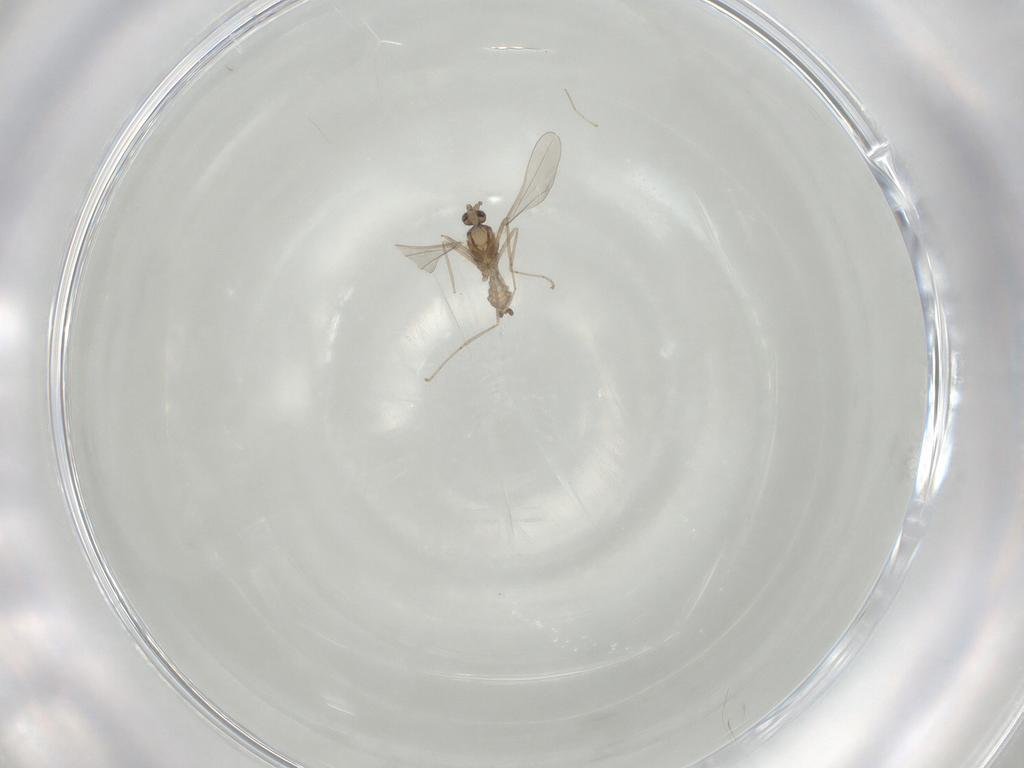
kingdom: Animalia
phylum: Arthropoda
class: Insecta
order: Diptera
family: Cecidomyiidae
